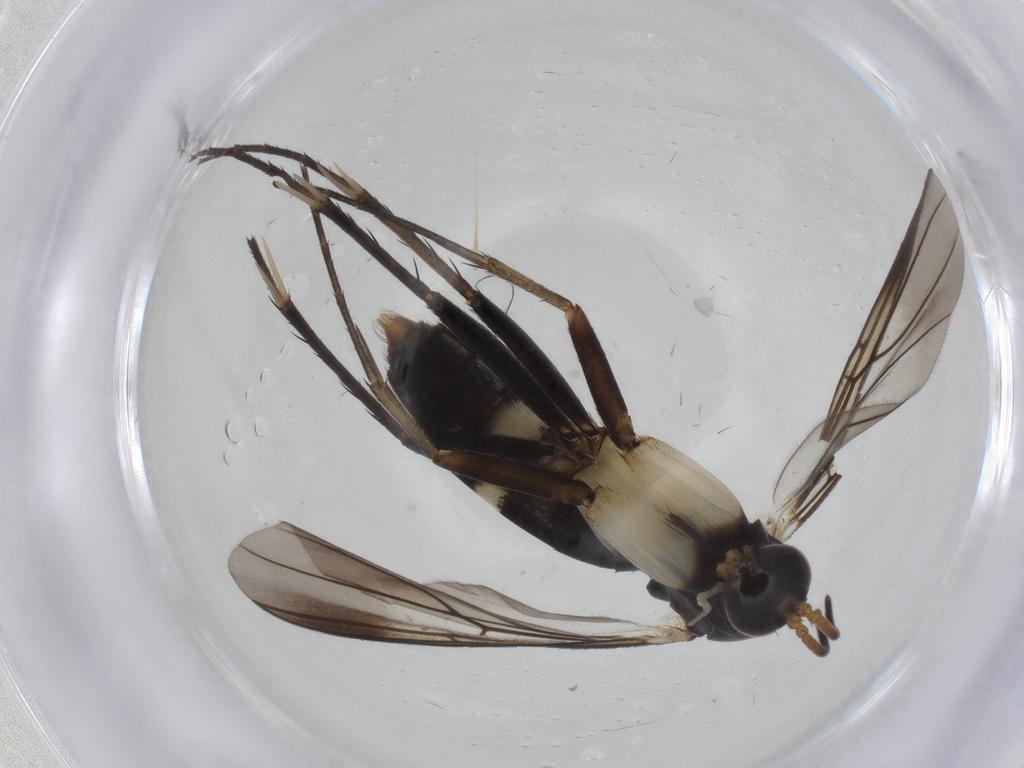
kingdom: Animalia
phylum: Arthropoda
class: Insecta
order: Diptera
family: Mycetophilidae
